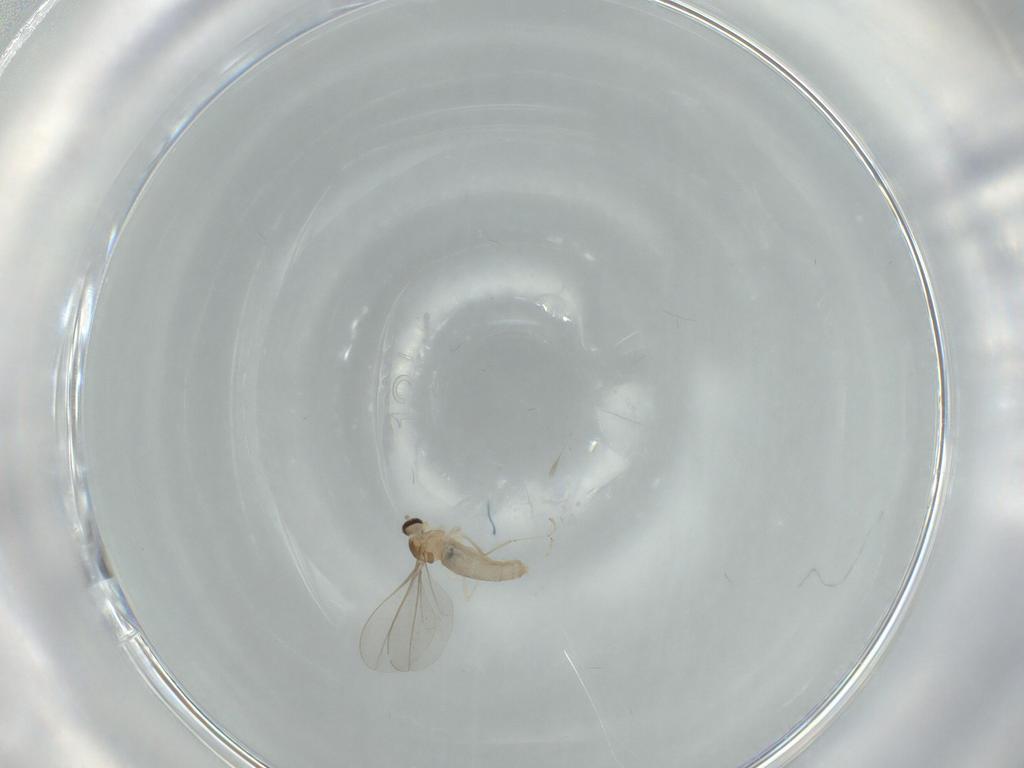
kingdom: Animalia
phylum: Arthropoda
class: Insecta
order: Diptera
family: Cecidomyiidae
